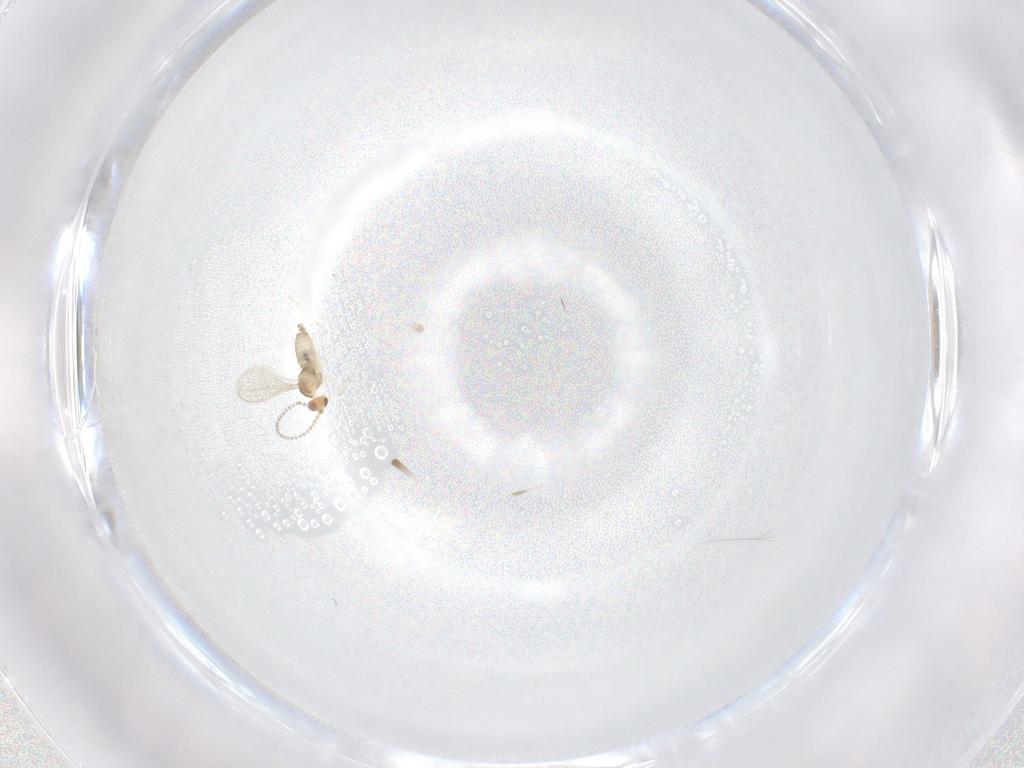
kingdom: Animalia
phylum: Arthropoda
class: Insecta
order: Diptera
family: Cecidomyiidae
